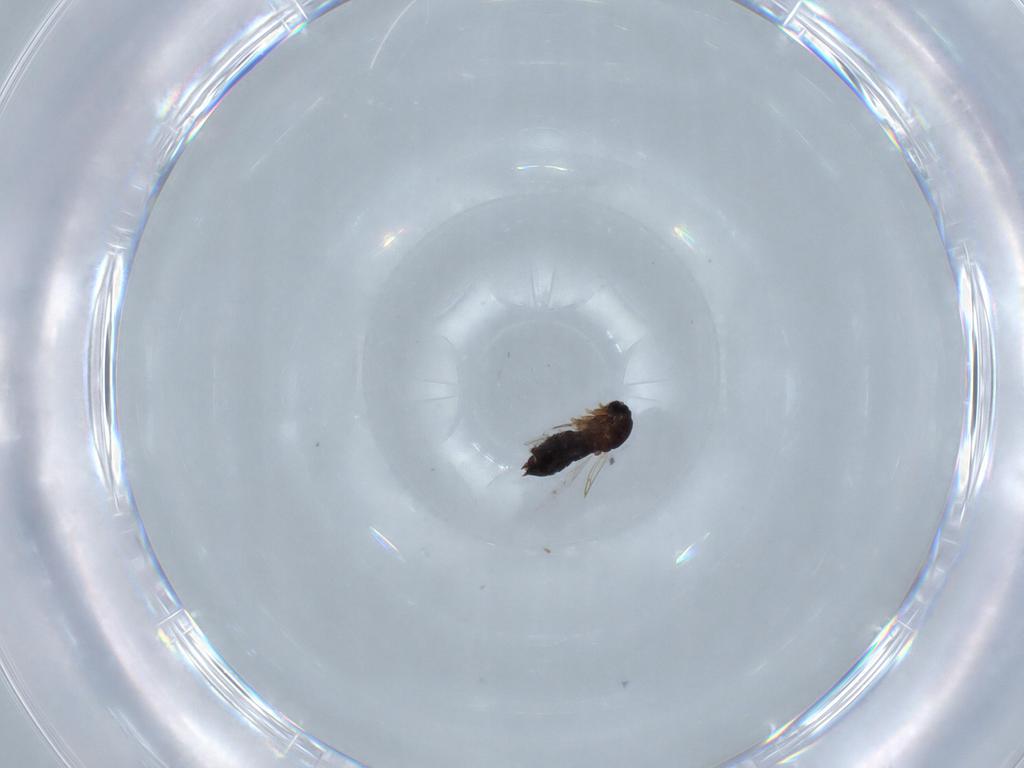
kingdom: Animalia
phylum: Arthropoda
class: Insecta
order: Diptera
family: Scatopsidae
